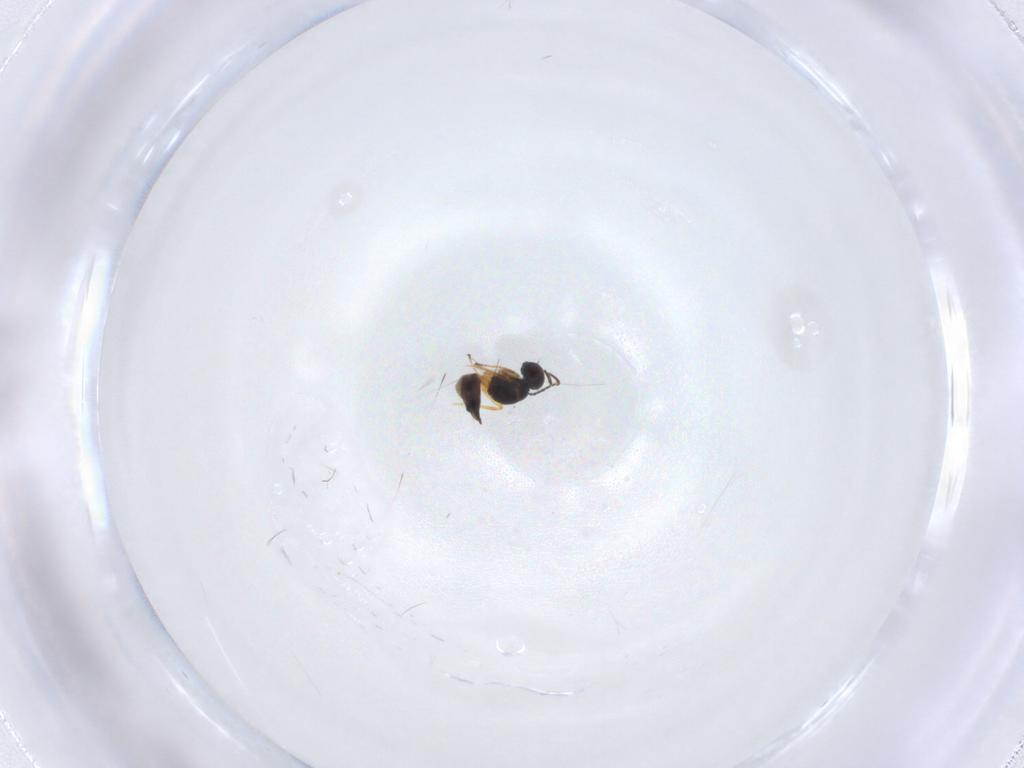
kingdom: Animalia
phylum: Arthropoda
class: Insecta
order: Hymenoptera
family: Mymaridae
